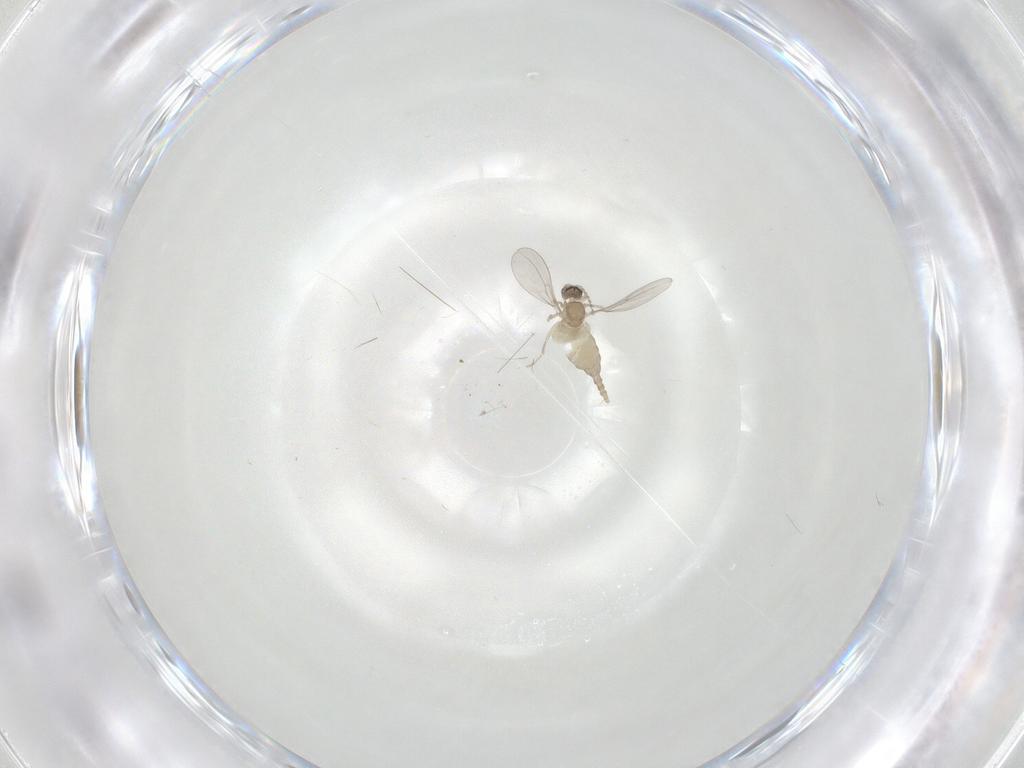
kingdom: Animalia
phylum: Arthropoda
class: Insecta
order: Diptera
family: Cecidomyiidae
